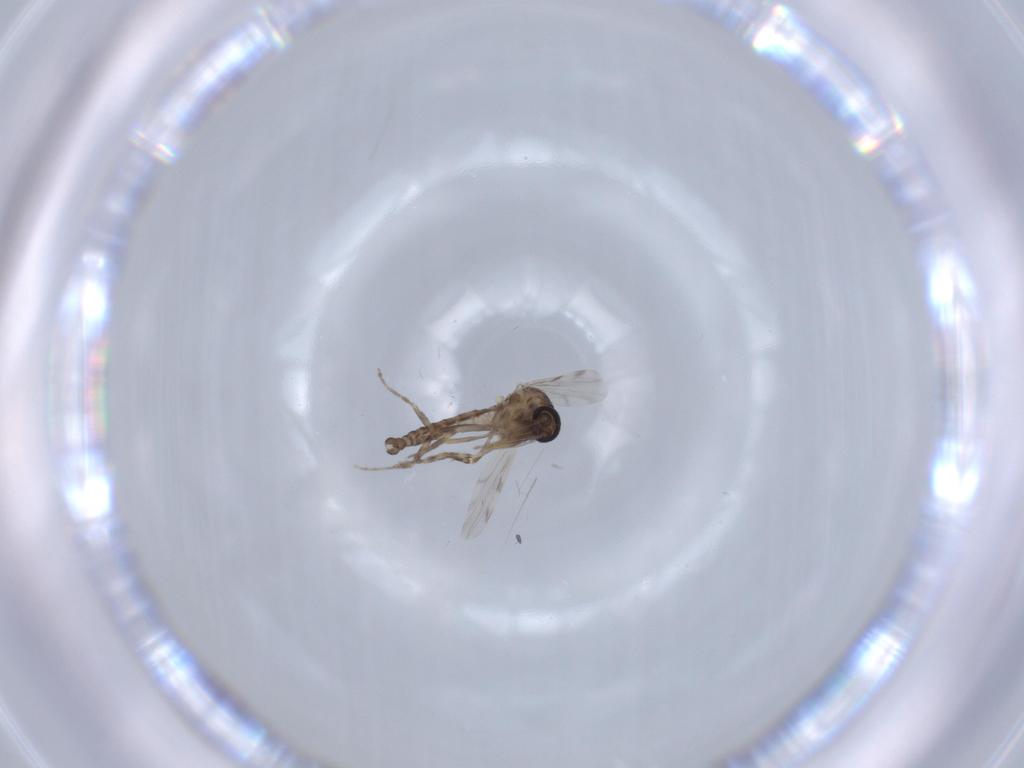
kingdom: Animalia
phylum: Arthropoda
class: Insecta
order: Diptera
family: Ceratopogonidae
